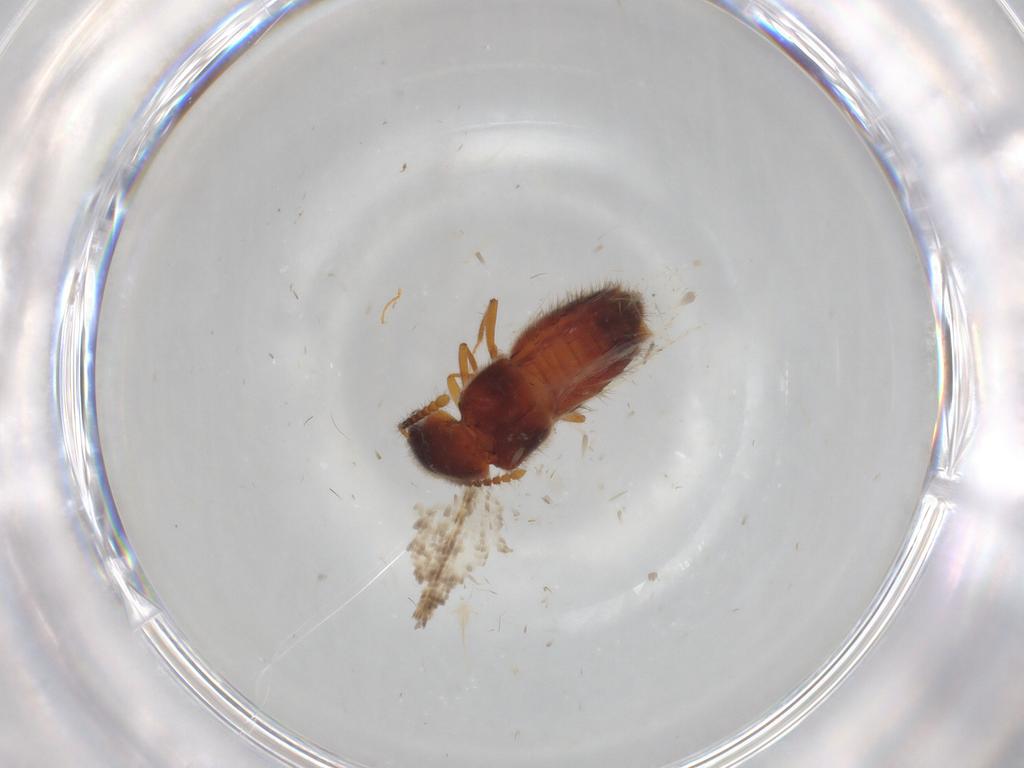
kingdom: Animalia
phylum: Arthropoda
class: Insecta
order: Coleoptera
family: Staphylinidae
